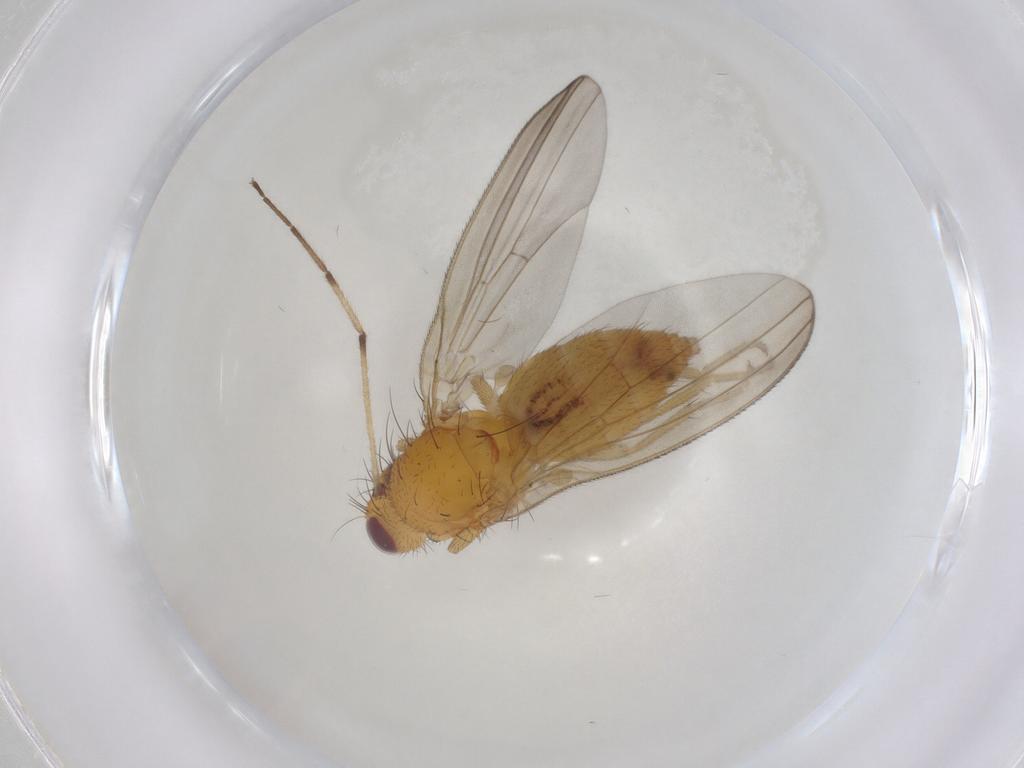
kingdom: Animalia
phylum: Arthropoda
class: Insecta
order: Diptera
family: Natalimyzidae
